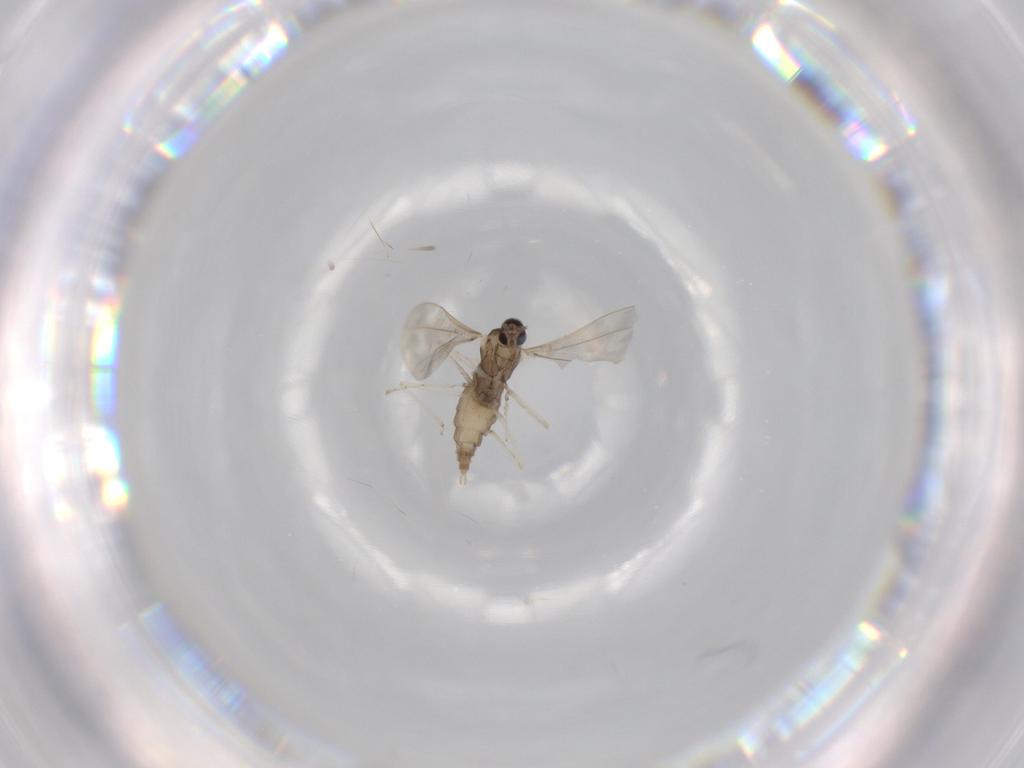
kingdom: Animalia
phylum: Arthropoda
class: Insecta
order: Diptera
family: Cecidomyiidae
